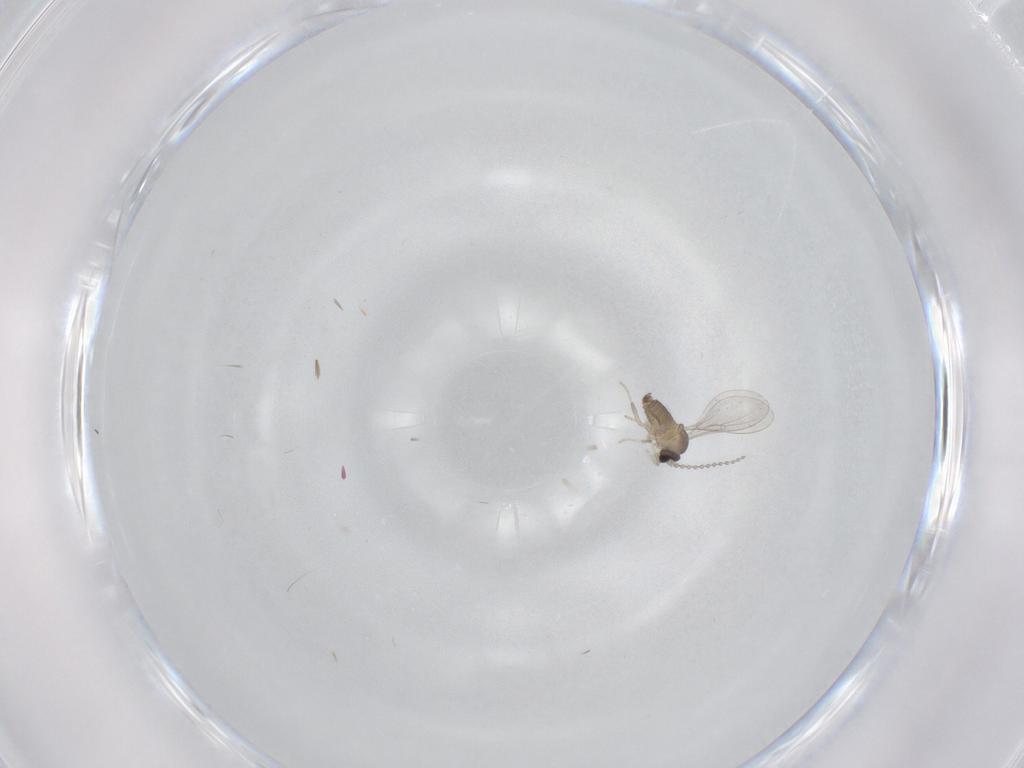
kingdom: Animalia
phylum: Arthropoda
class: Insecta
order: Diptera
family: Cecidomyiidae
